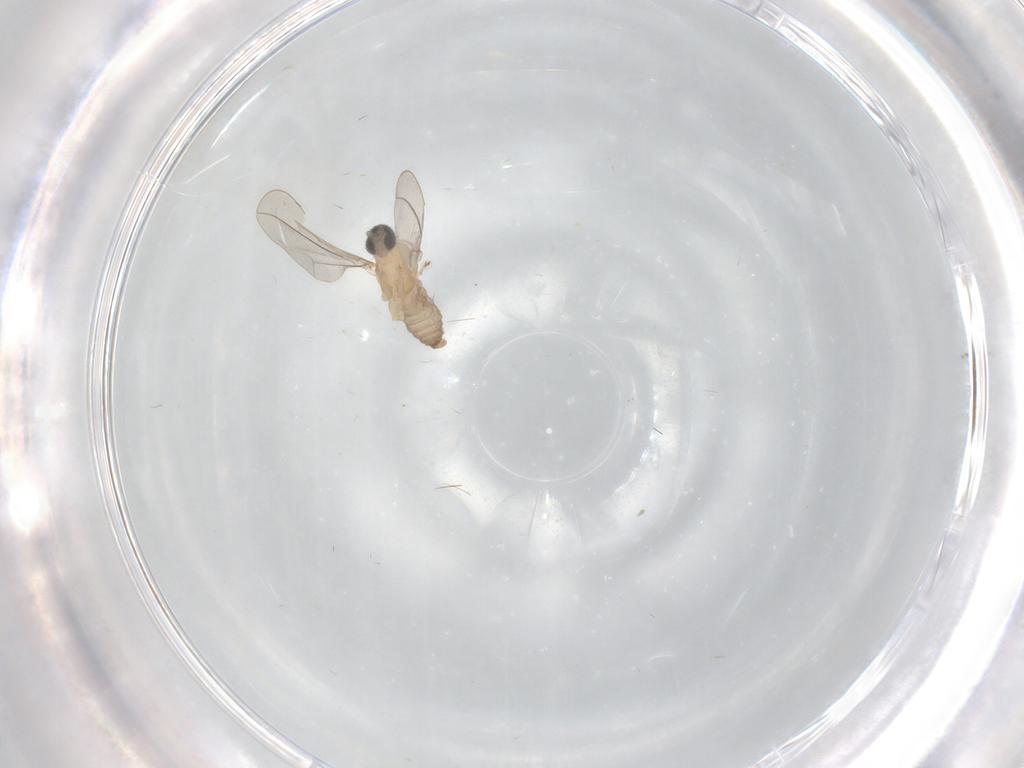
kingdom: Animalia
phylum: Arthropoda
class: Insecta
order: Diptera
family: Cecidomyiidae
